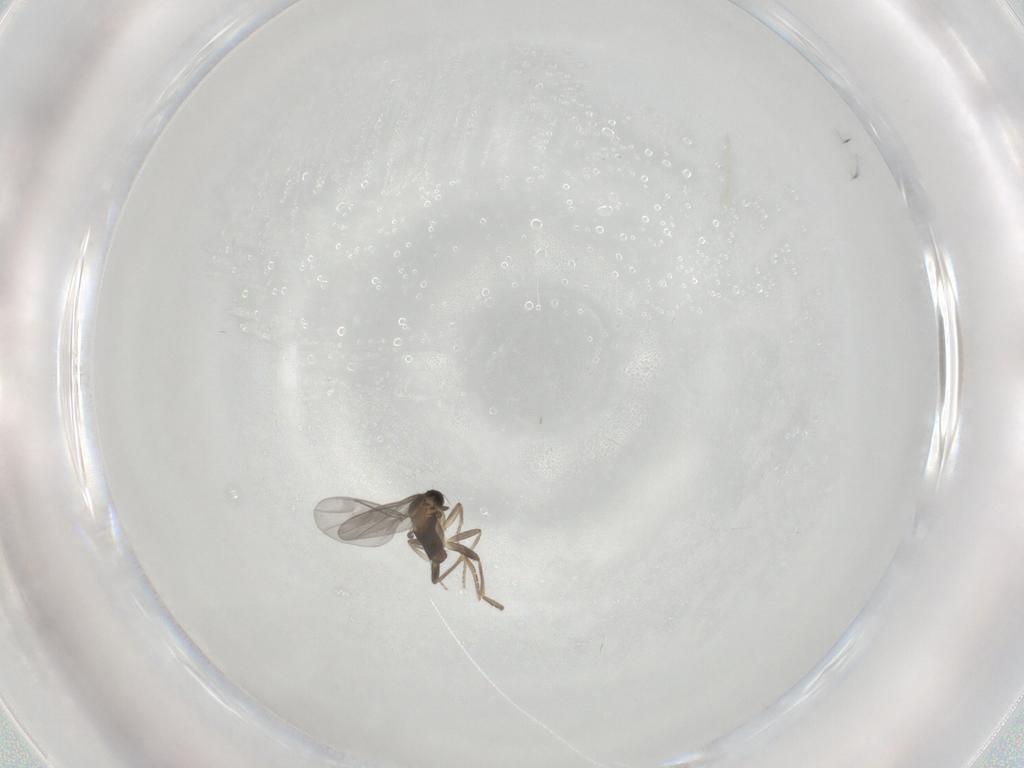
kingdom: Animalia
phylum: Arthropoda
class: Insecta
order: Diptera
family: Phoridae
